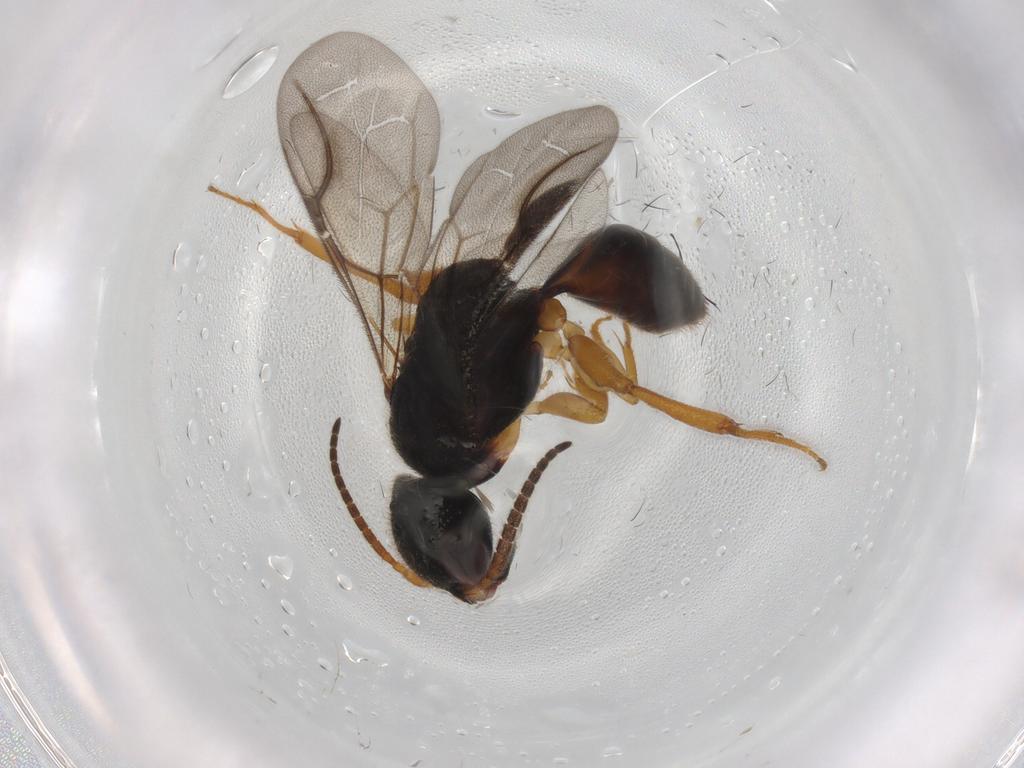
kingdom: Animalia
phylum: Arthropoda
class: Insecta
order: Hymenoptera
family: Bethylidae
